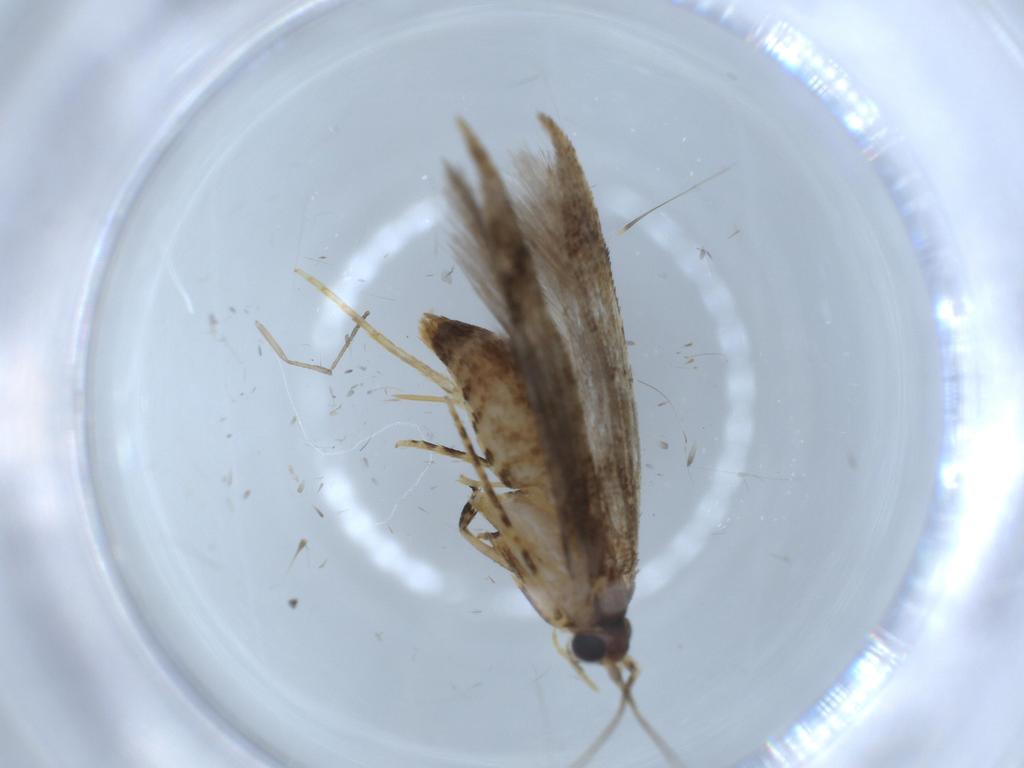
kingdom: Animalia
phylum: Arthropoda
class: Insecta
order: Lepidoptera
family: Tineidae
